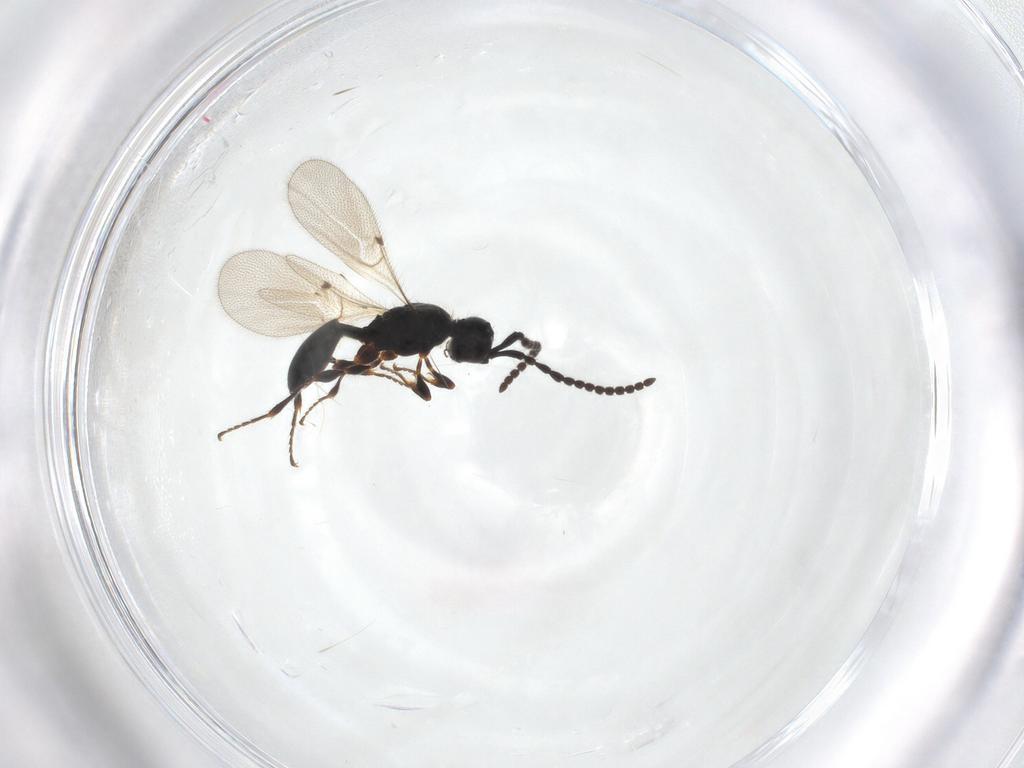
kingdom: Animalia
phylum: Arthropoda
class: Insecta
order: Hymenoptera
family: Diapriidae
